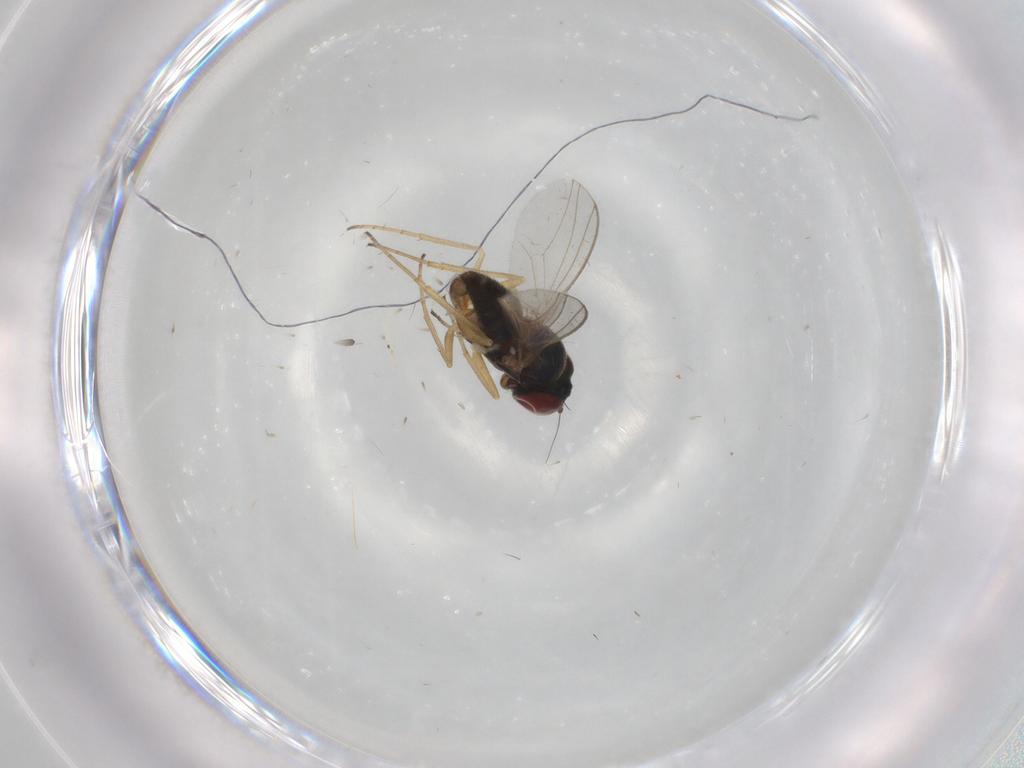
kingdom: Animalia
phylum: Arthropoda
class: Insecta
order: Diptera
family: Dolichopodidae
